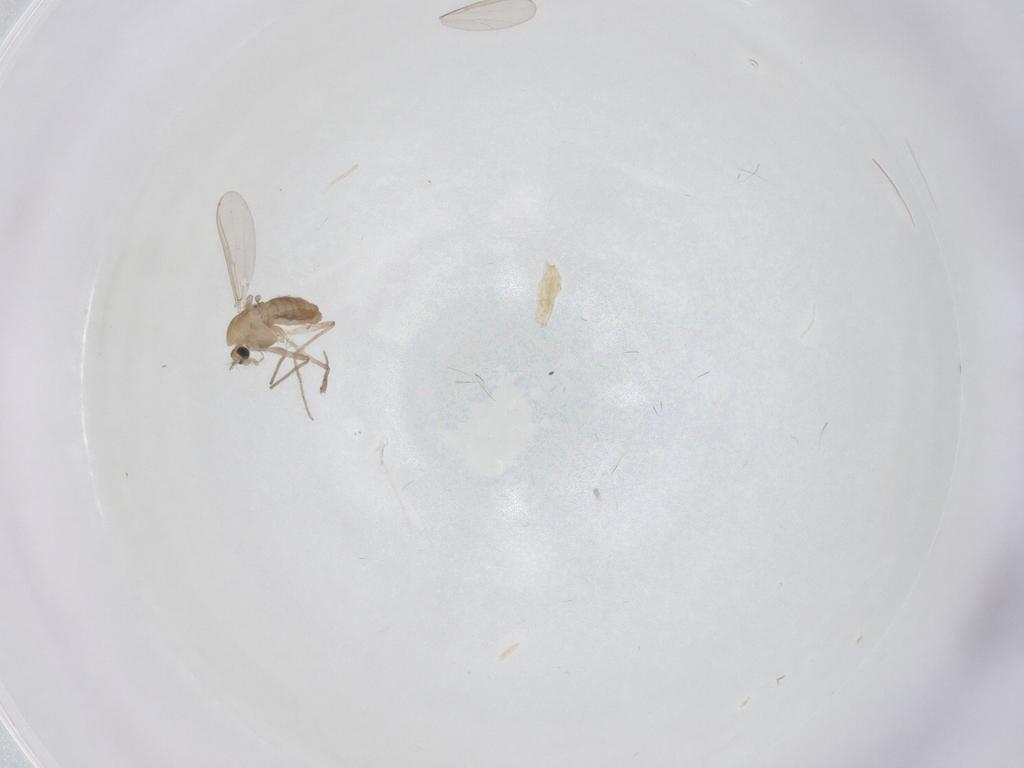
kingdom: Animalia
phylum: Arthropoda
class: Insecta
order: Diptera
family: Chironomidae
